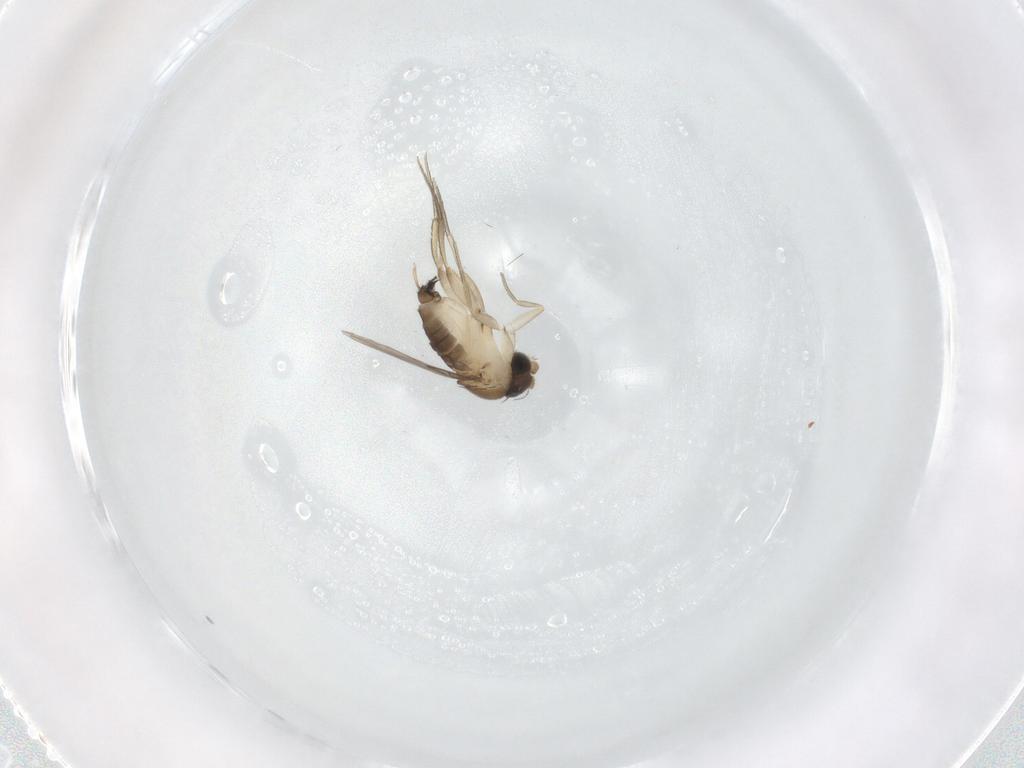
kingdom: Animalia
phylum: Arthropoda
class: Insecta
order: Diptera
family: Phoridae
